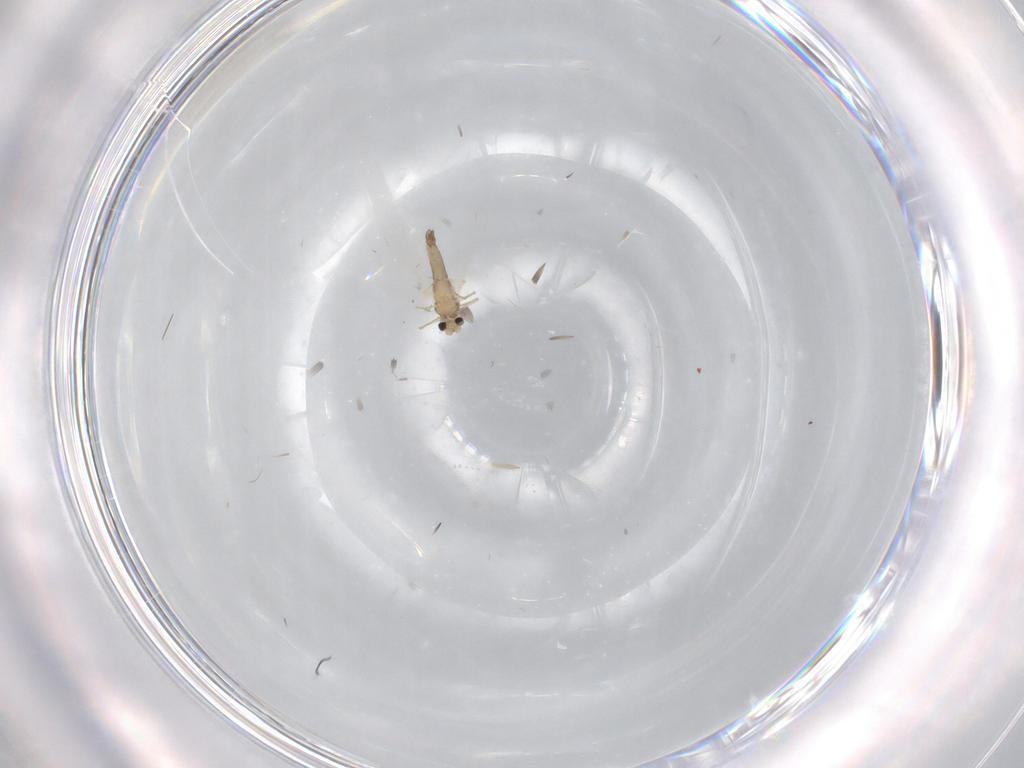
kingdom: Animalia
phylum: Arthropoda
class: Insecta
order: Diptera
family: Chironomidae
